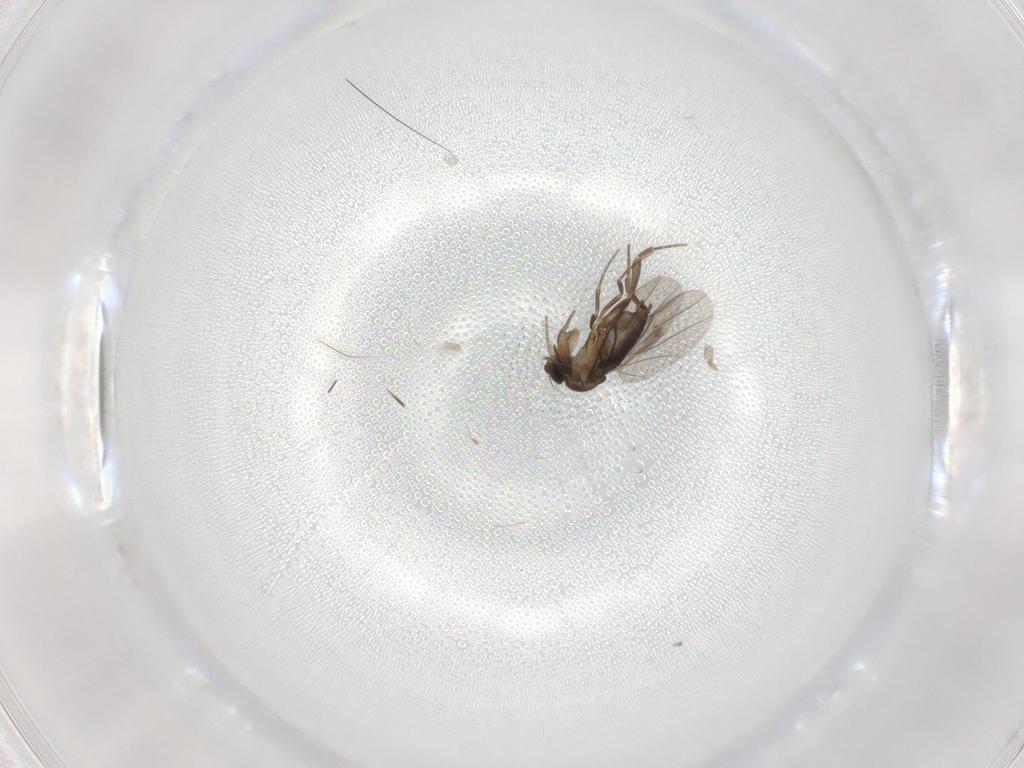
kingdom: Animalia
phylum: Arthropoda
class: Insecta
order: Diptera
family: Phoridae
